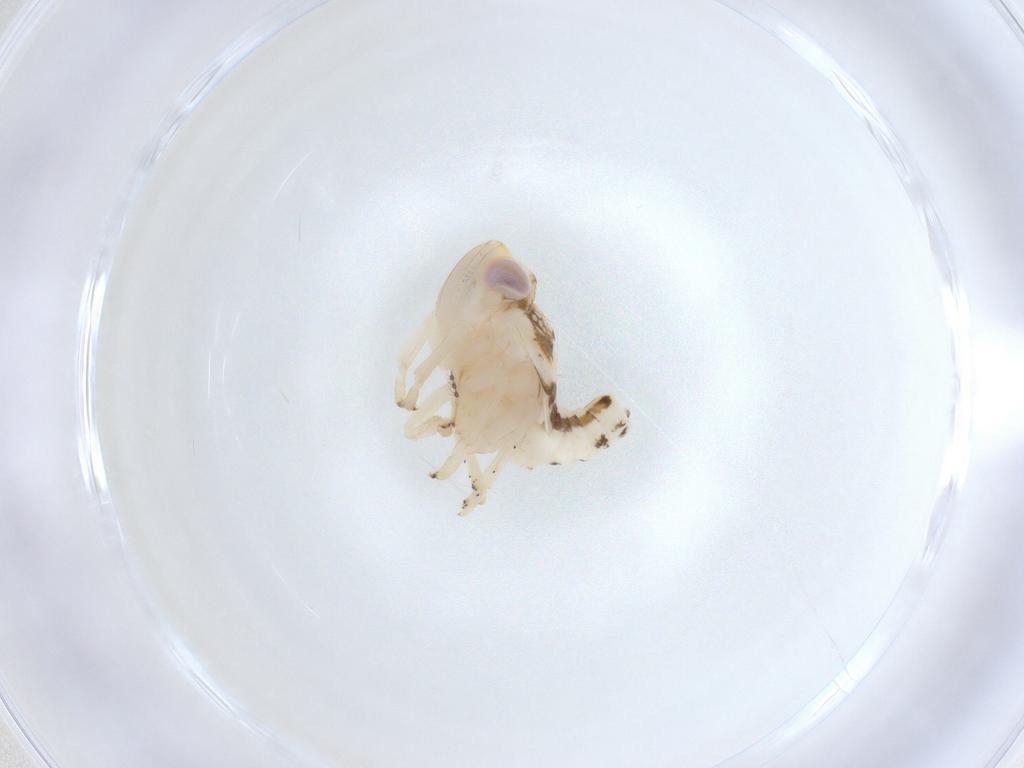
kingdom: Animalia
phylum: Arthropoda
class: Insecta
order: Hemiptera
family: Nogodinidae
